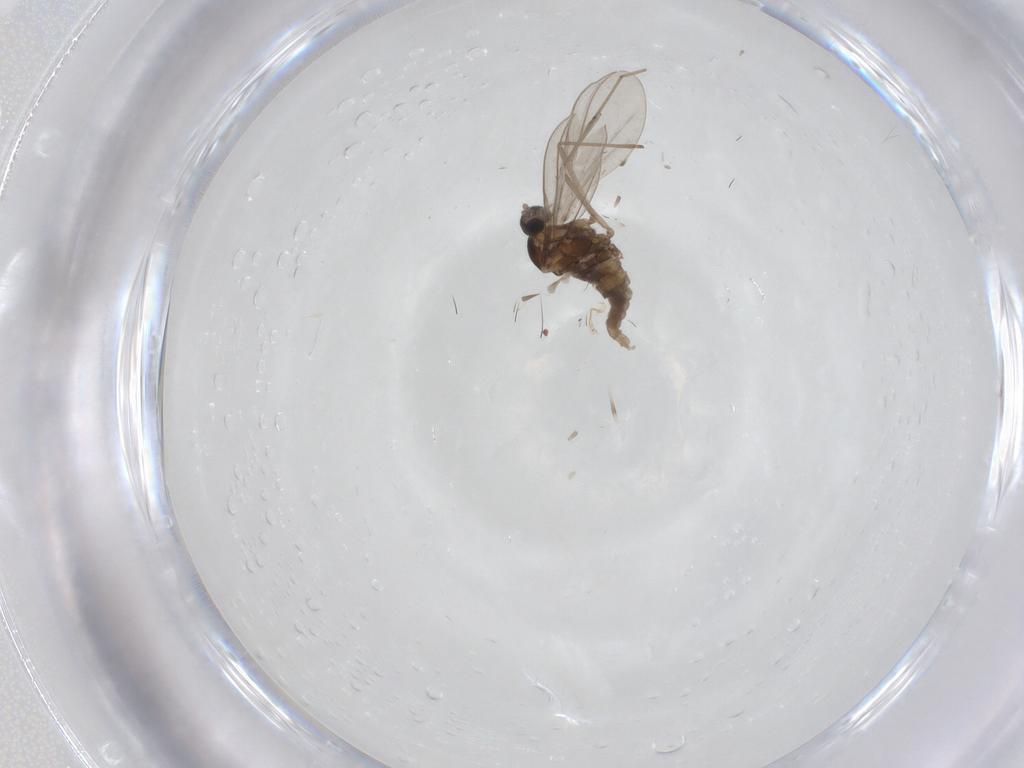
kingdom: Animalia
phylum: Arthropoda
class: Insecta
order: Diptera
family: Cecidomyiidae
